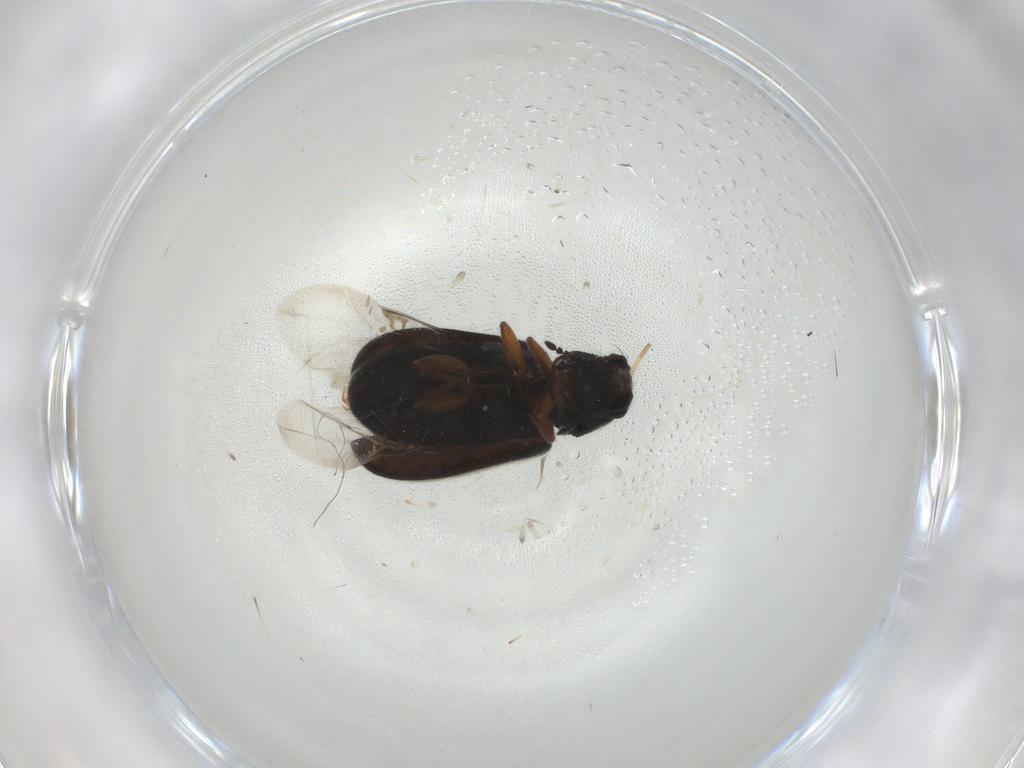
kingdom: Animalia
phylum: Arthropoda
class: Insecta
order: Coleoptera
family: Melyridae
